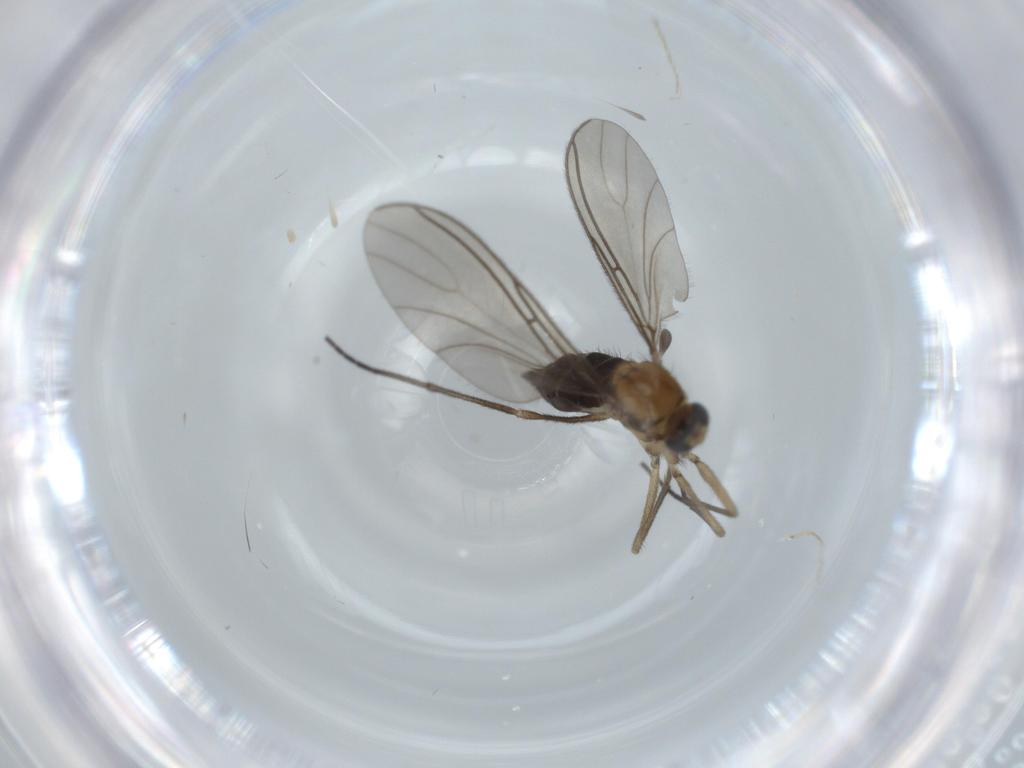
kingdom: Animalia
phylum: Arthropoda
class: Insecta
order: Diptera
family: Sciaridae
